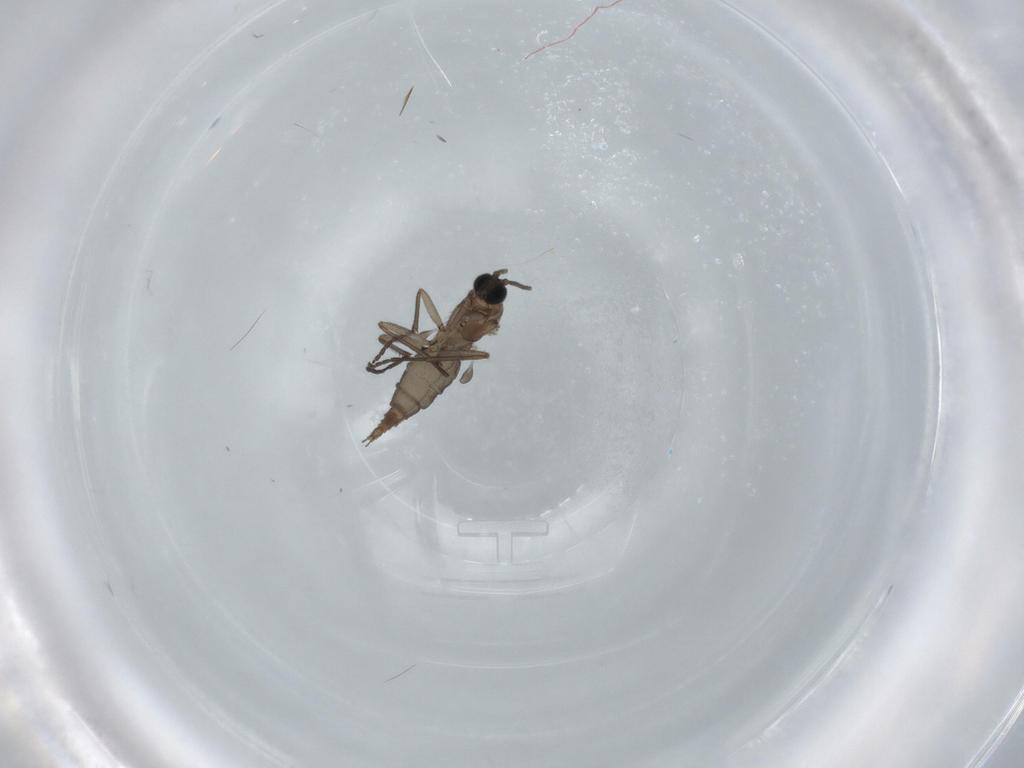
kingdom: Animalia
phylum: Arthropoda
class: Insecta
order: Diptera
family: Sciaridae
